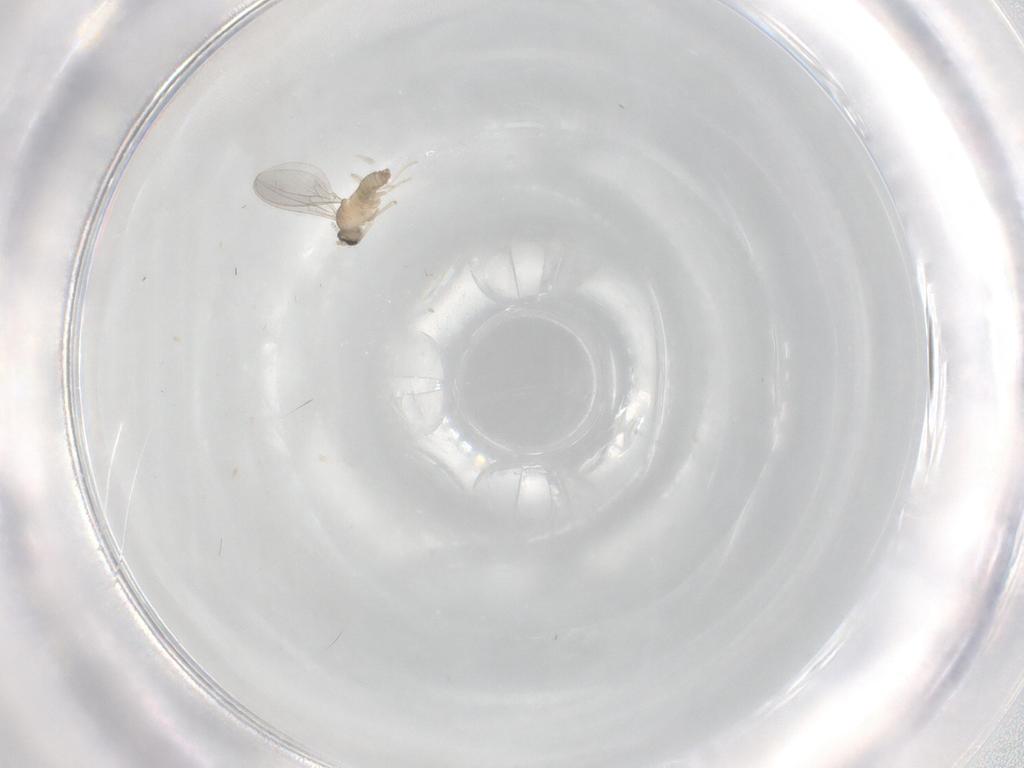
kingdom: Animalia
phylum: Arthropoda
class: Insecta
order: Diptera
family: Cecidomyiidae
